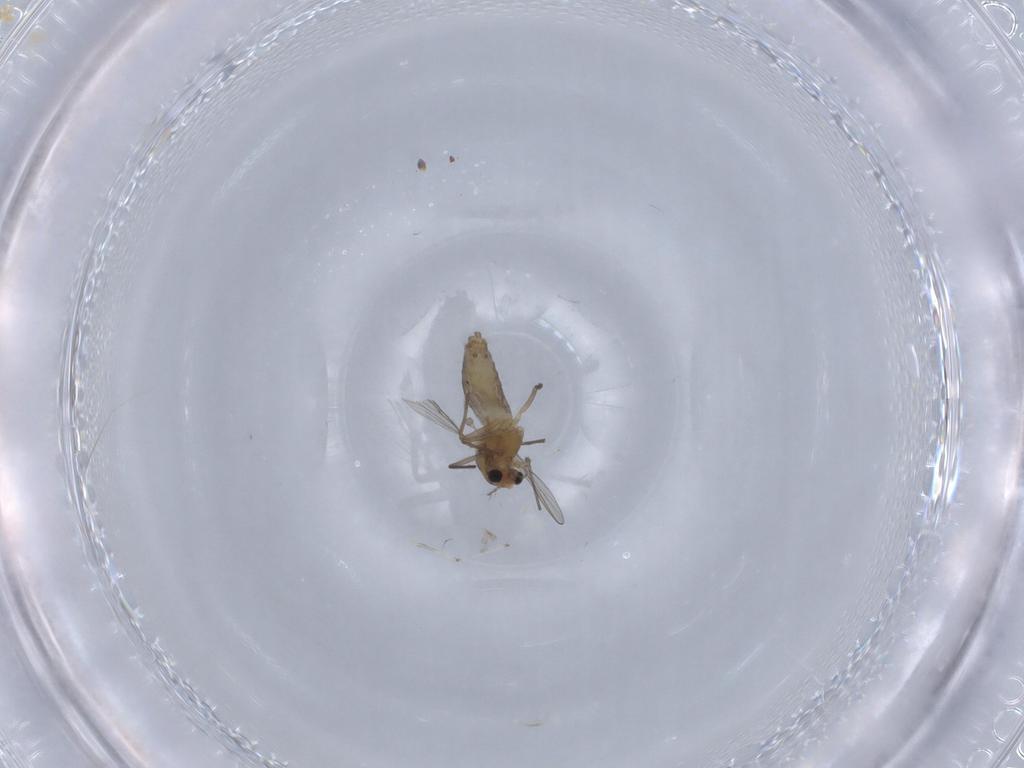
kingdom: Animalia
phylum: Arthropoda
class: Insecta
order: Diptera
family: Chironomidae
